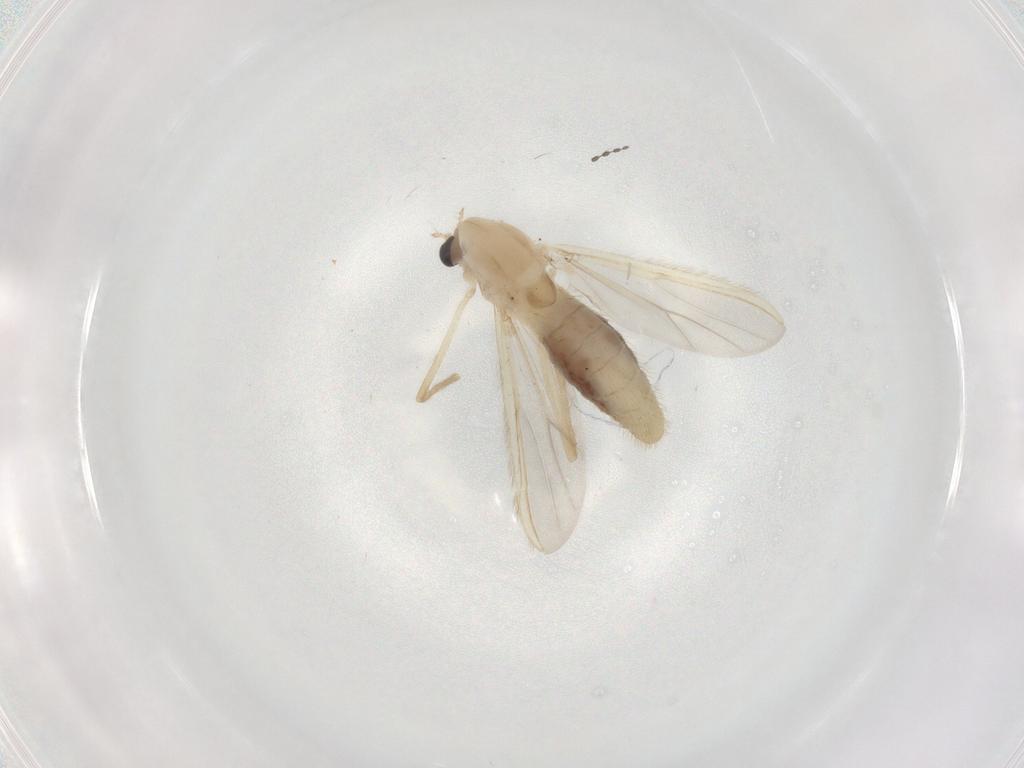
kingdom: Animalia
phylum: Arthropoda
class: Insecta
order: Diptera
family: Chironomidae
